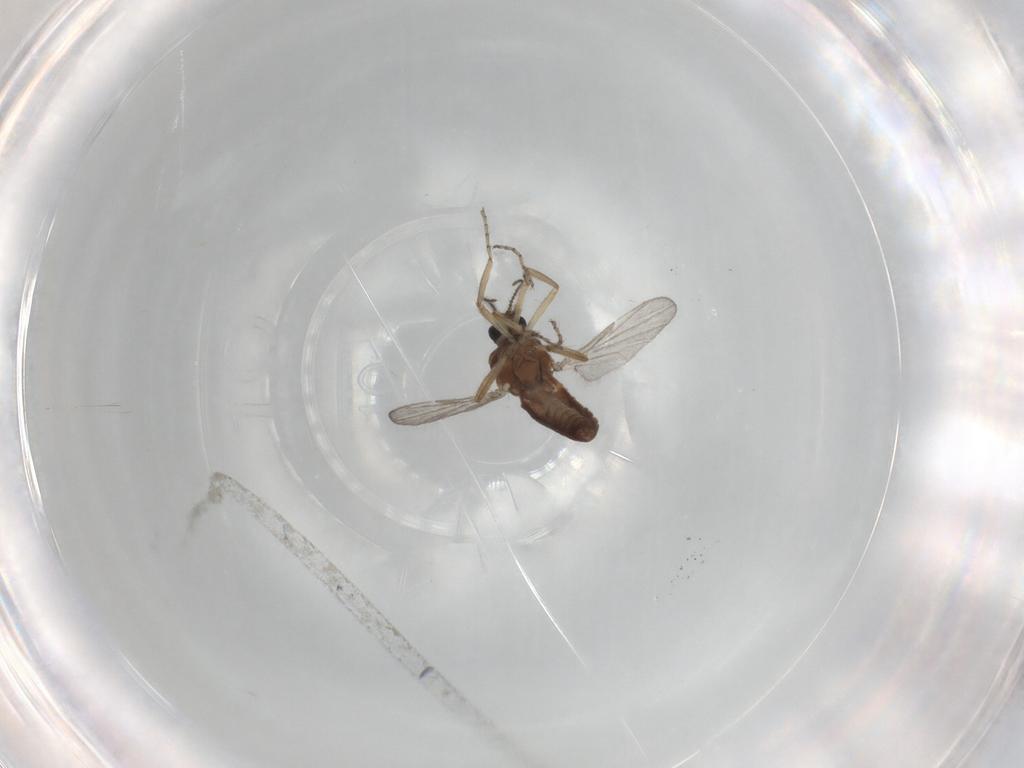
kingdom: Animalia
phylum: Arthropoda
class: Insecta
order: Diptera
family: Ceratopogonidae
